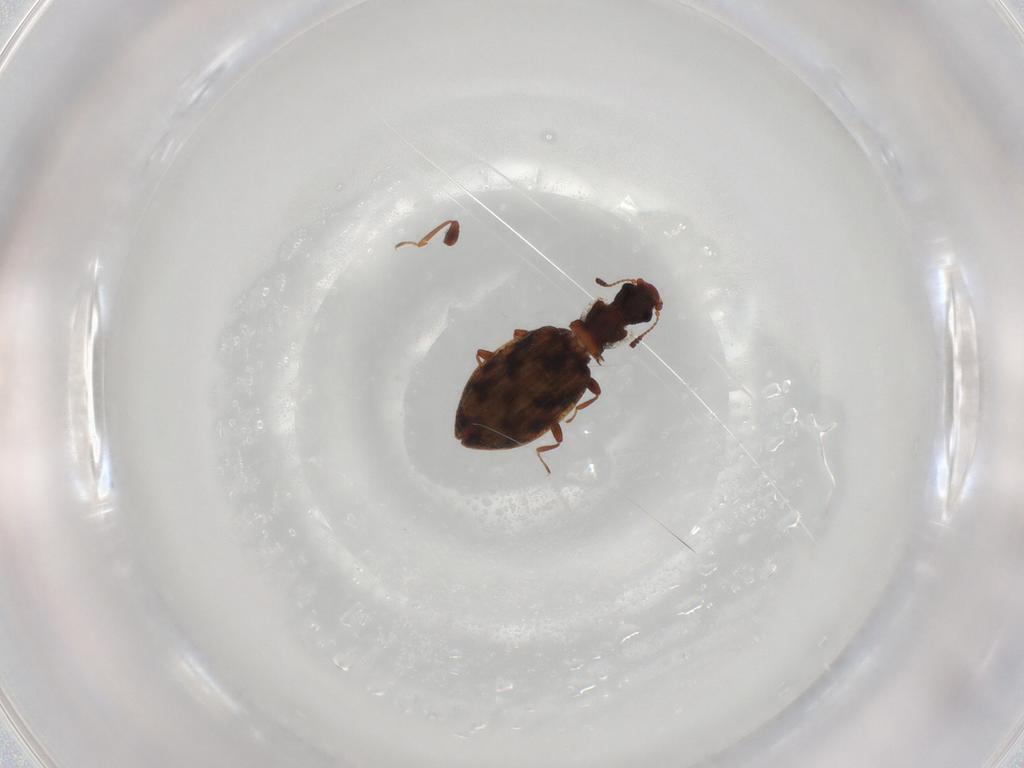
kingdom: Animalia
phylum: Arthropoda
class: Insecta
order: Coleoptera
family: Latridiidae
